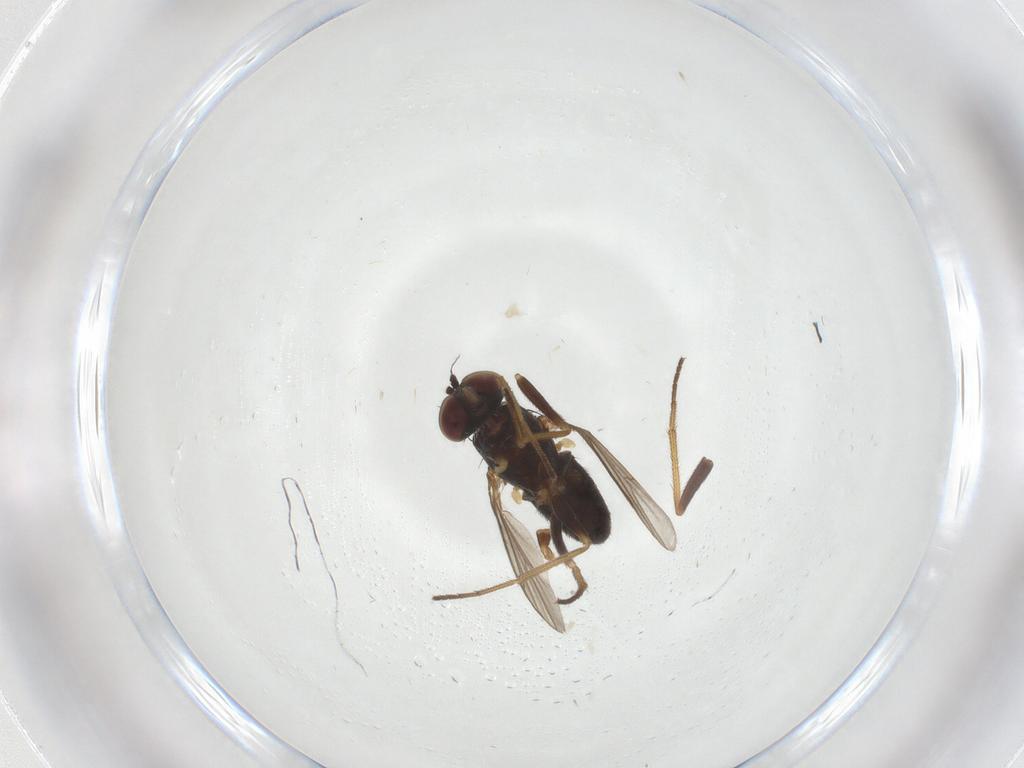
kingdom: Animalia
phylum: Arthropoda
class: Insecta
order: Diptera
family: Dolichopodidae
